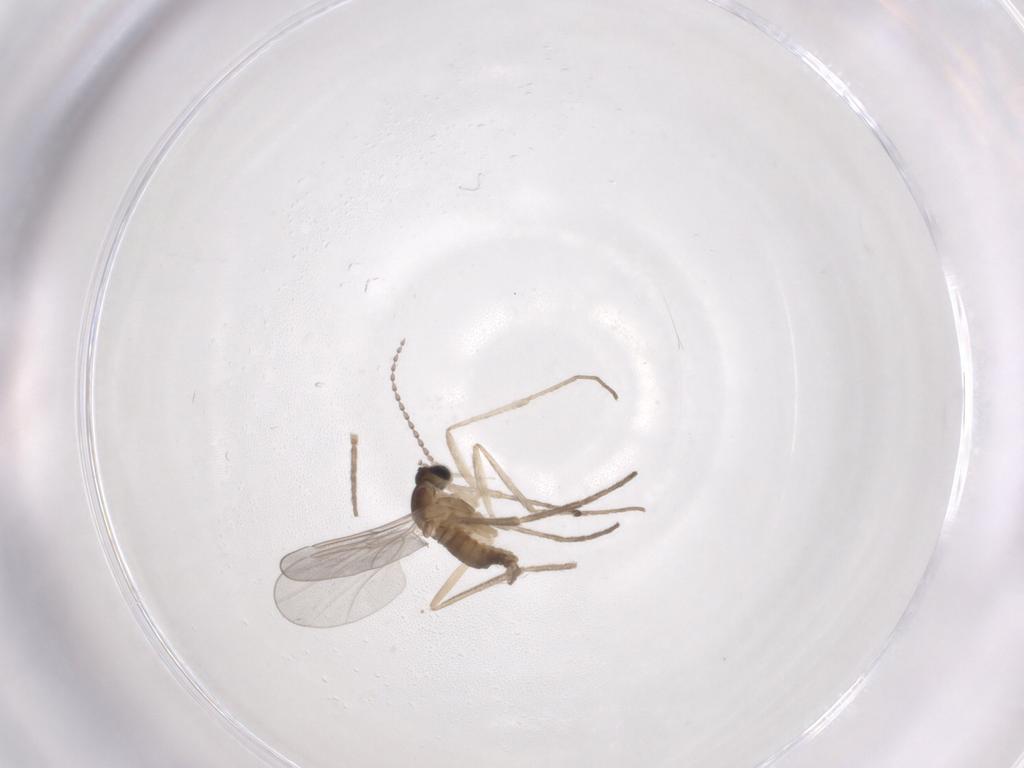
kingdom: Animalia
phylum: Arthropoda
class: Insecta
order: Diptera
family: Cecidomyiidae
